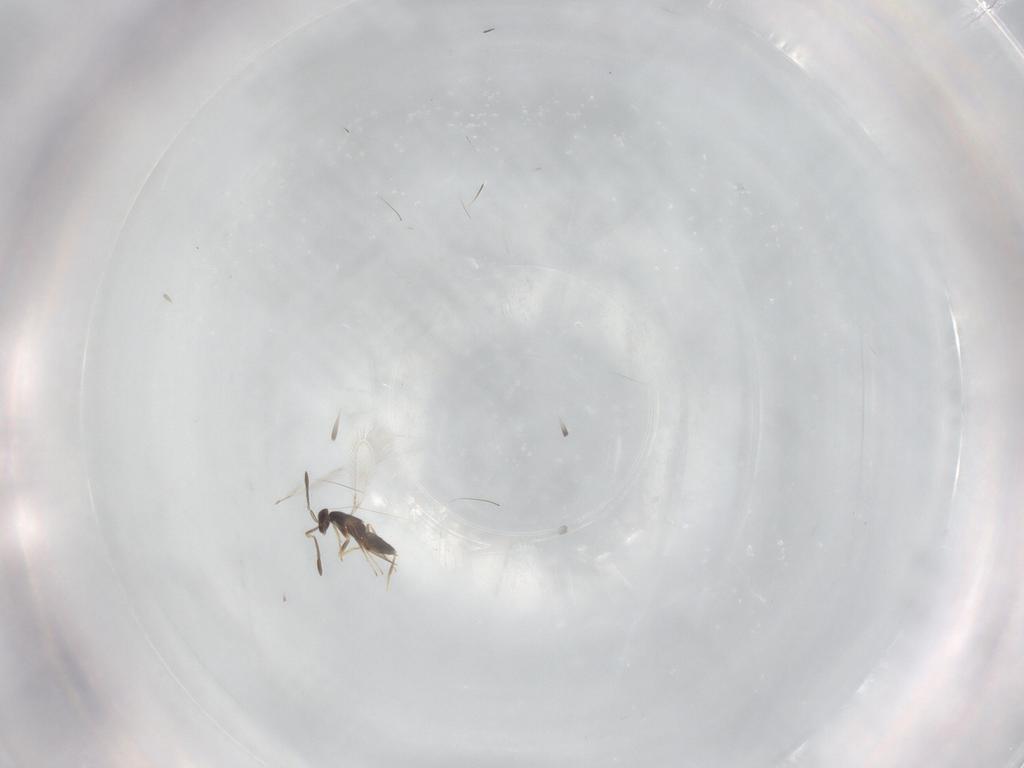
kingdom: Animalia
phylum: Arthropoda
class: Insecta
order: Hymenoptera
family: Mymaridae
